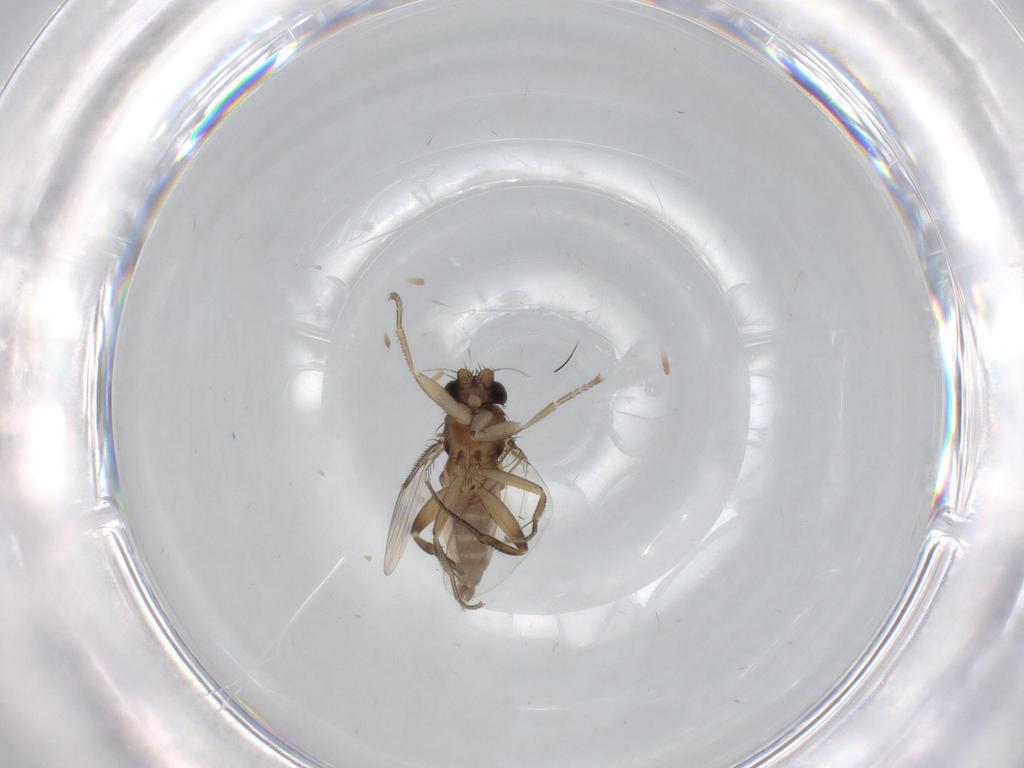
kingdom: Animalia
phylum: Arthropoda
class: Insecta
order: Diptera
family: Phoridae
